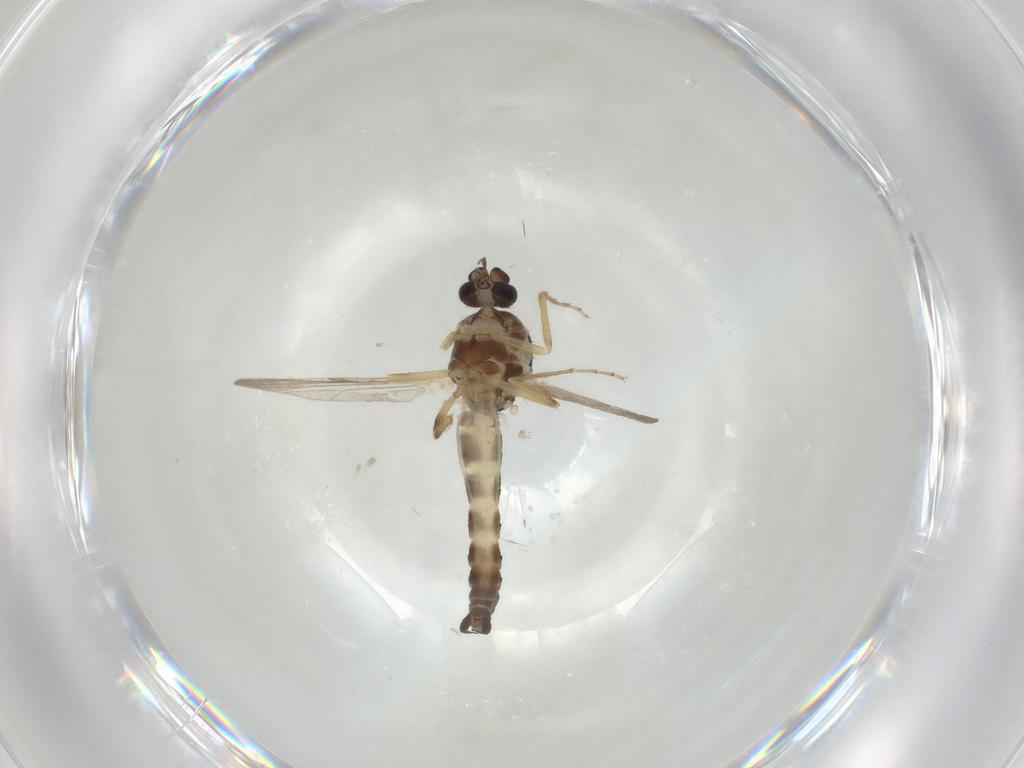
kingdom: Animalia
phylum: Arthropoda
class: Insecta
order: Diptera
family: Ceratopogonidae
